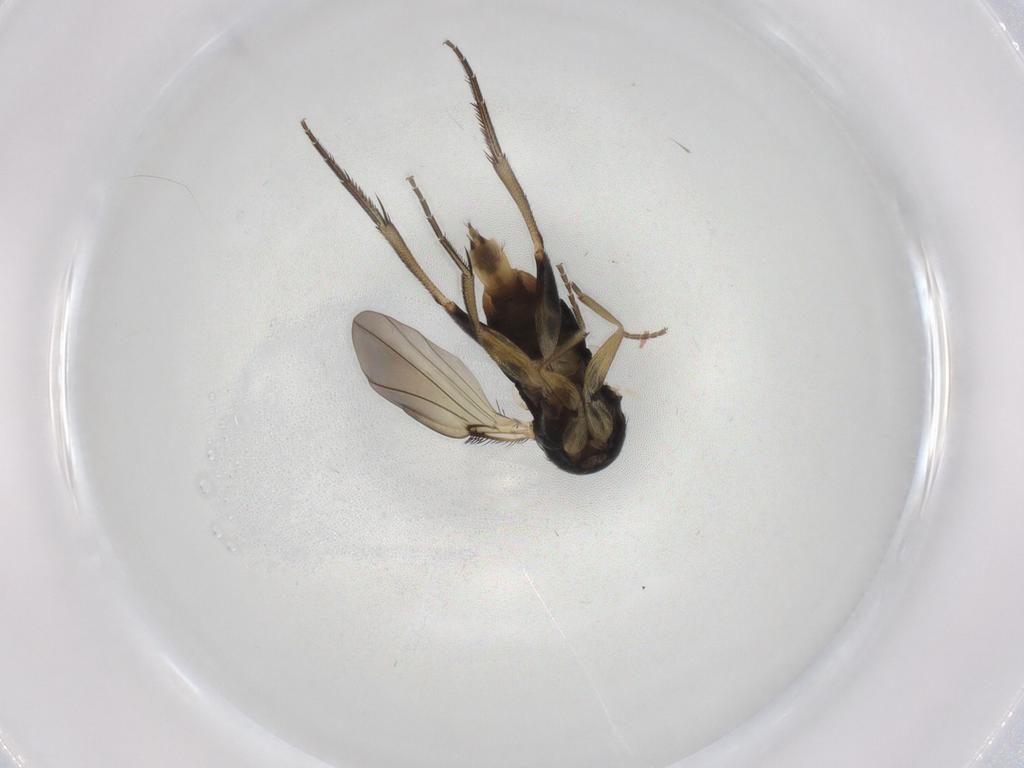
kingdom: Animalia
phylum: Arthropoda
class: Insecta
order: Diptera
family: Phoridae
